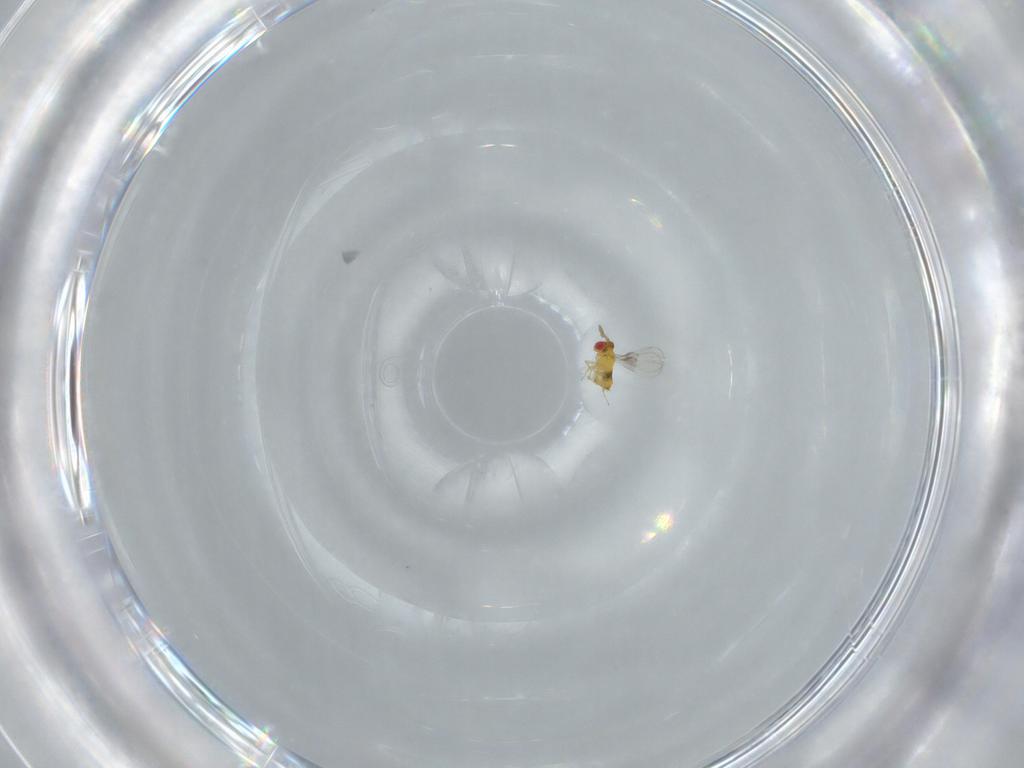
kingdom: Animalia
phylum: Arthropoda
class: Insecta
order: Hymenoptera
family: Trichogrammatidae
